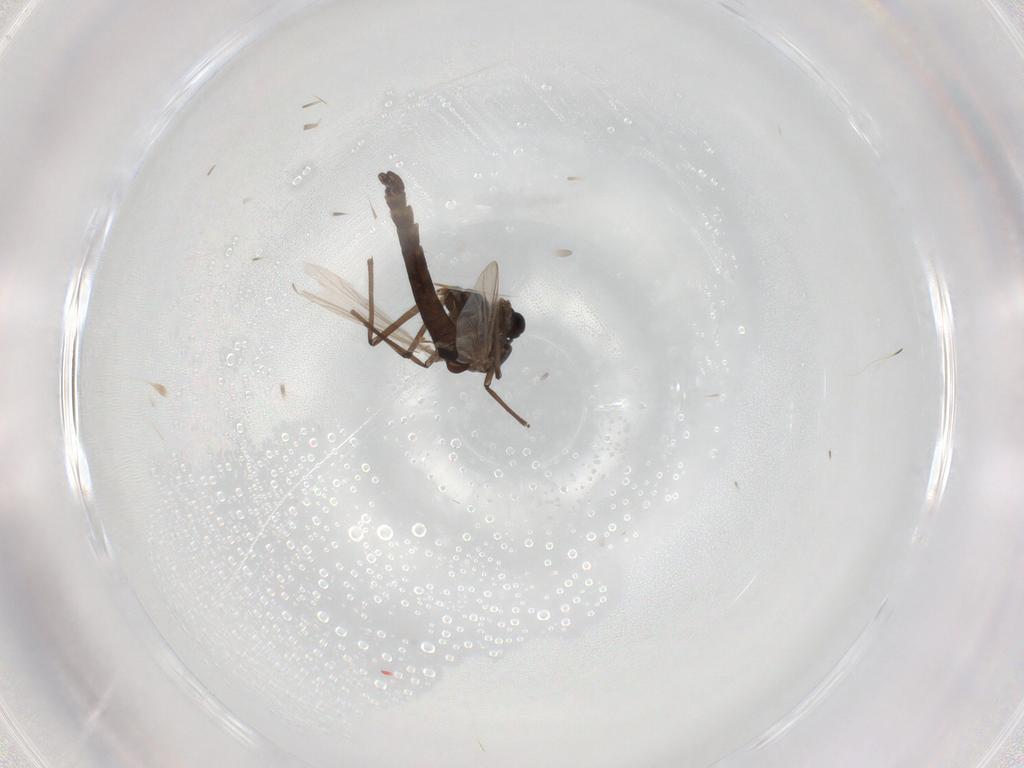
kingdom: Animalia
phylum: Arthropoda
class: Insecta
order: Diptera
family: Chironomidae
